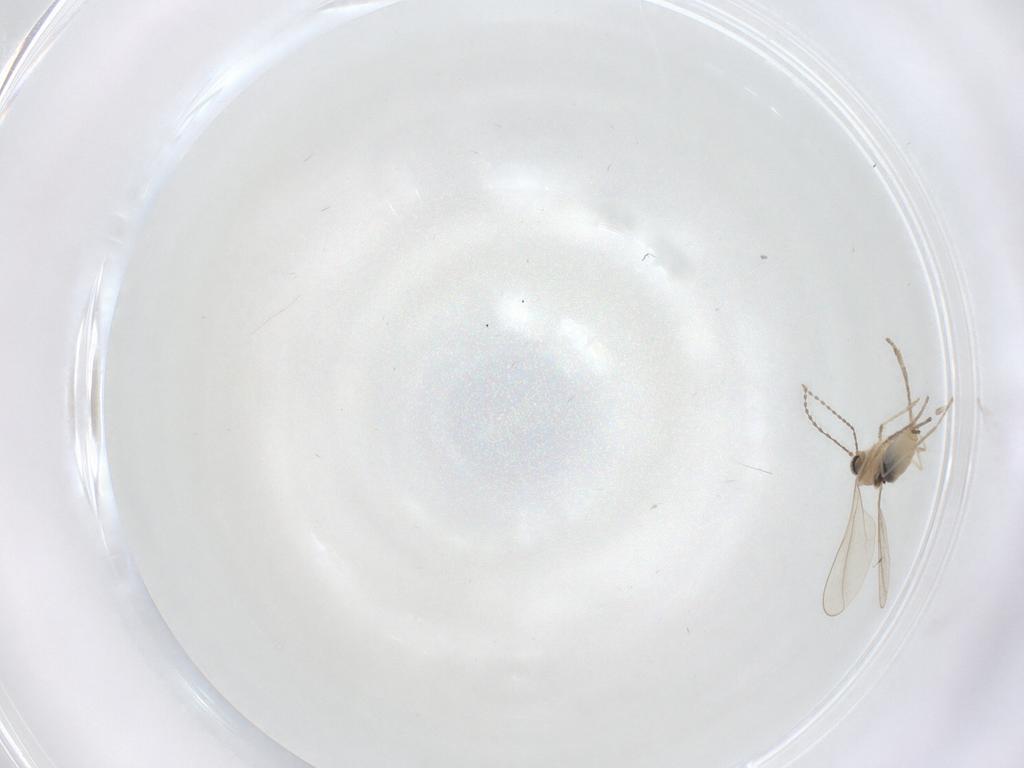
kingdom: Animalia
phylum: Arthropoda
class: Insecta
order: Diptera
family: Cecidomyiidae
